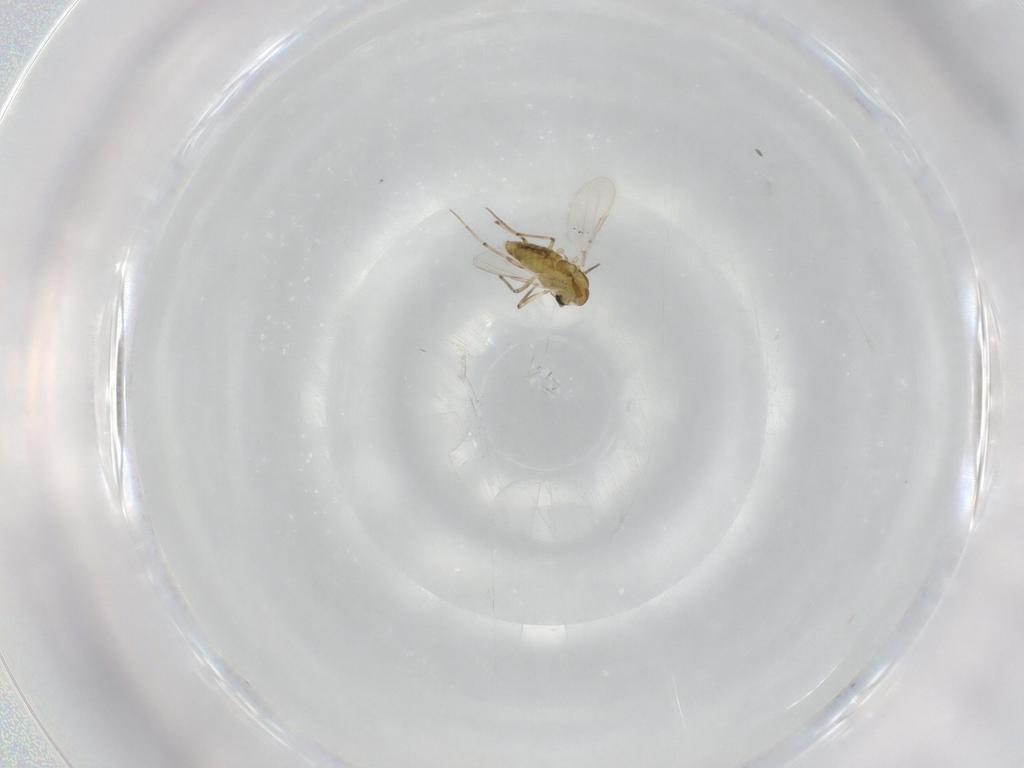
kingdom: Animalia
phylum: Arthropoda
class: Insecta
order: Diptera
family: Chironomidae
